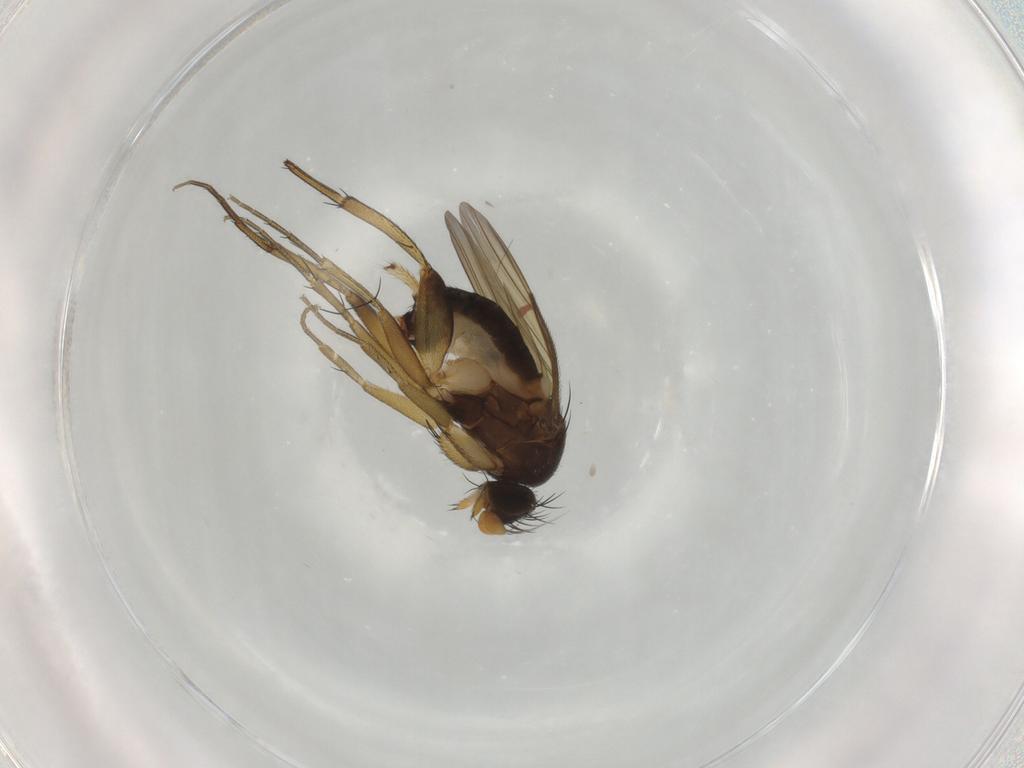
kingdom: Animalia
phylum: Arthropoda
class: Insecta
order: Diptera
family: Phoridae
